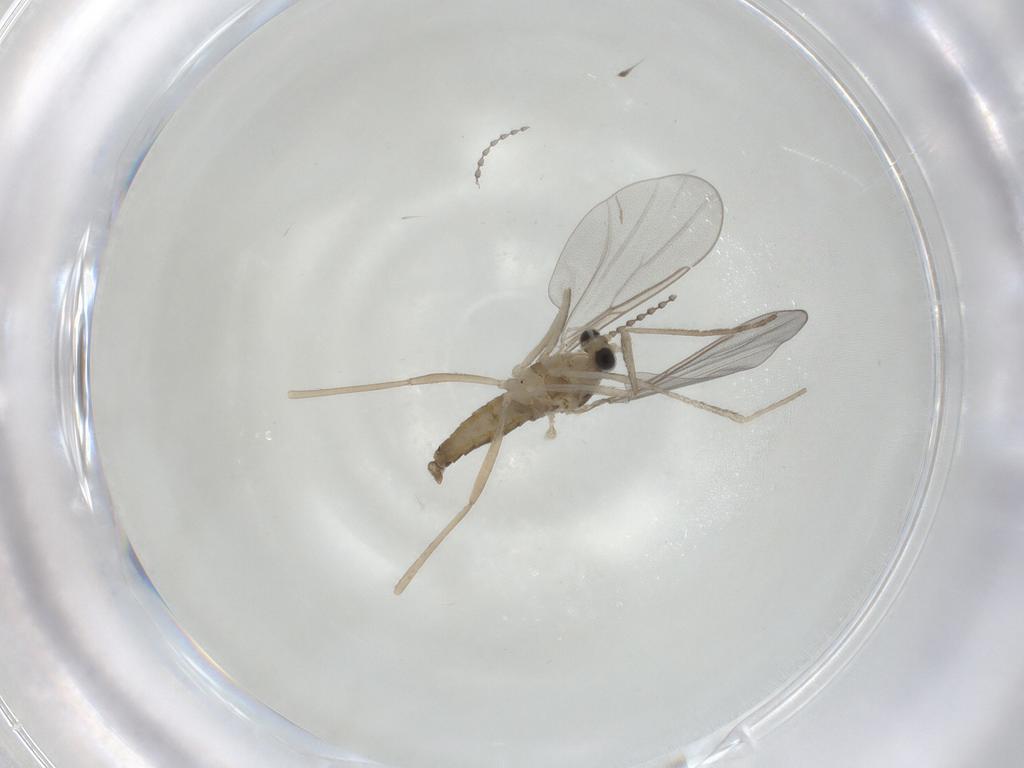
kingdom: Animalia
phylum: Arthropoda
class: Insecta
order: Diptera
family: Cecidomyiidae
